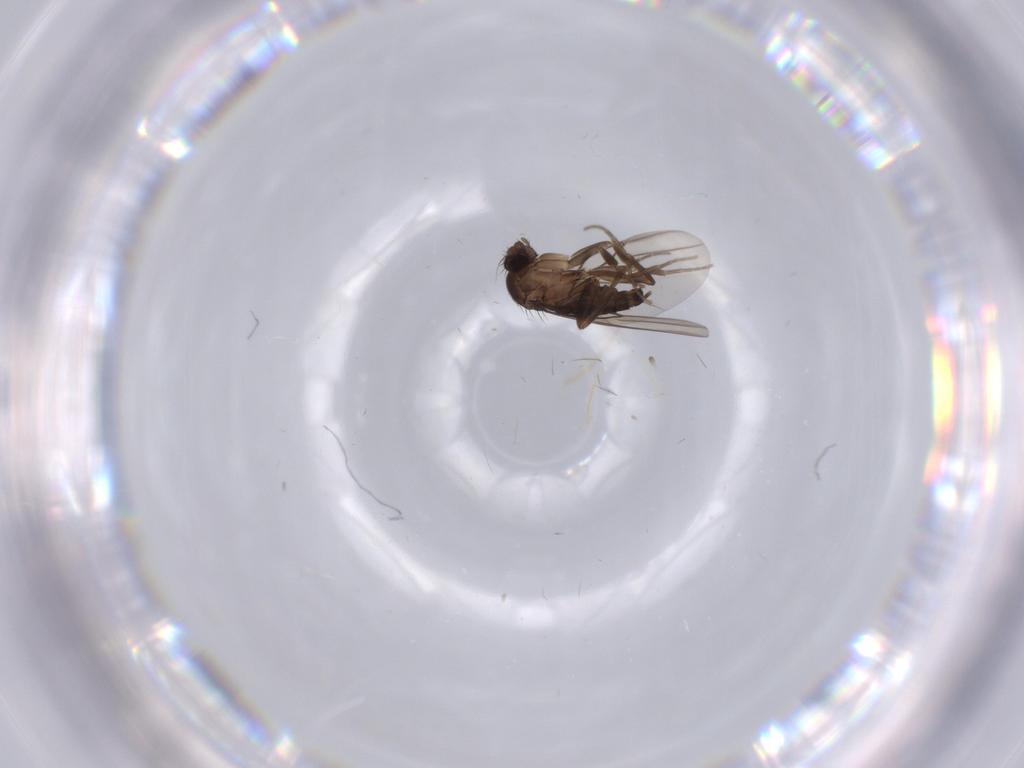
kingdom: Animalia
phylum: Arthropoda
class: Insecta
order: Diptera
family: Phoridae
